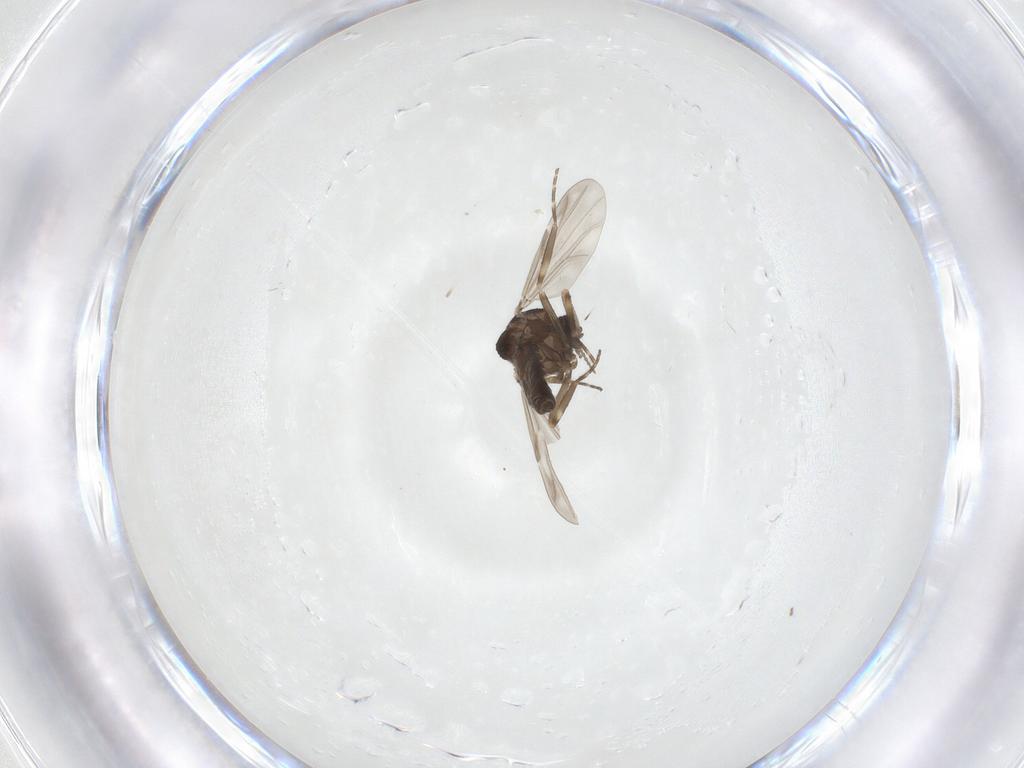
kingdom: Animalia
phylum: Arthropoda
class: Insecta
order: Diptera
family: Ceratopogonidae
